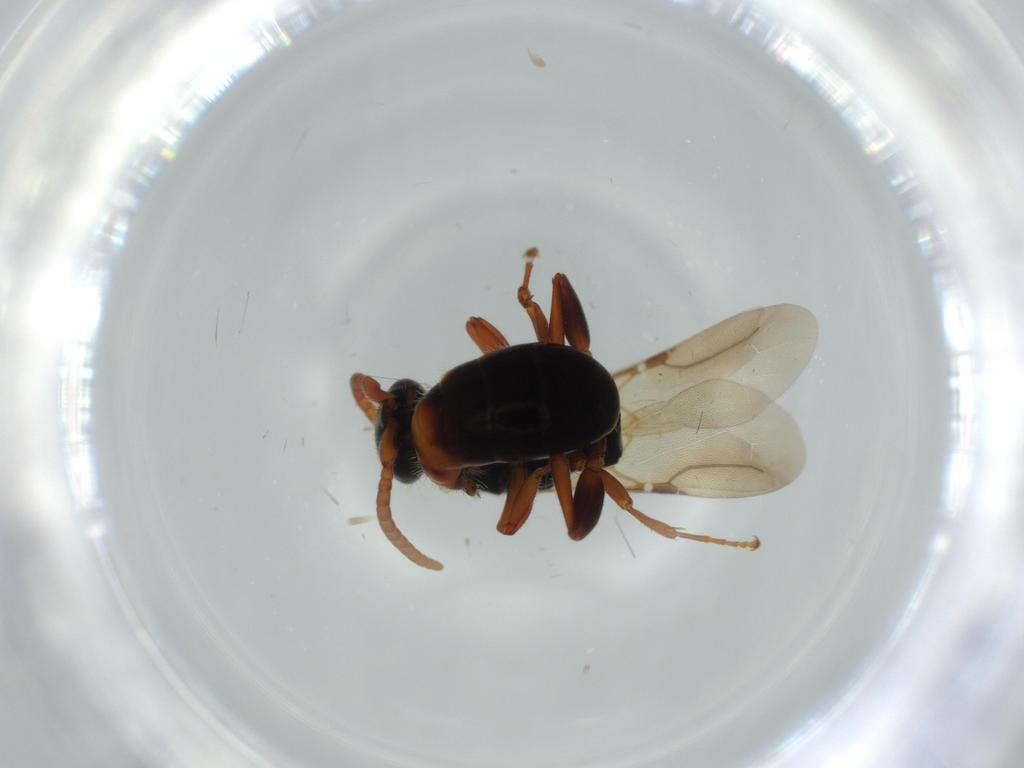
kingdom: Animalia
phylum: Arthropoda
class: Insecta
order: Hymenoptera
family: Bethylidae
